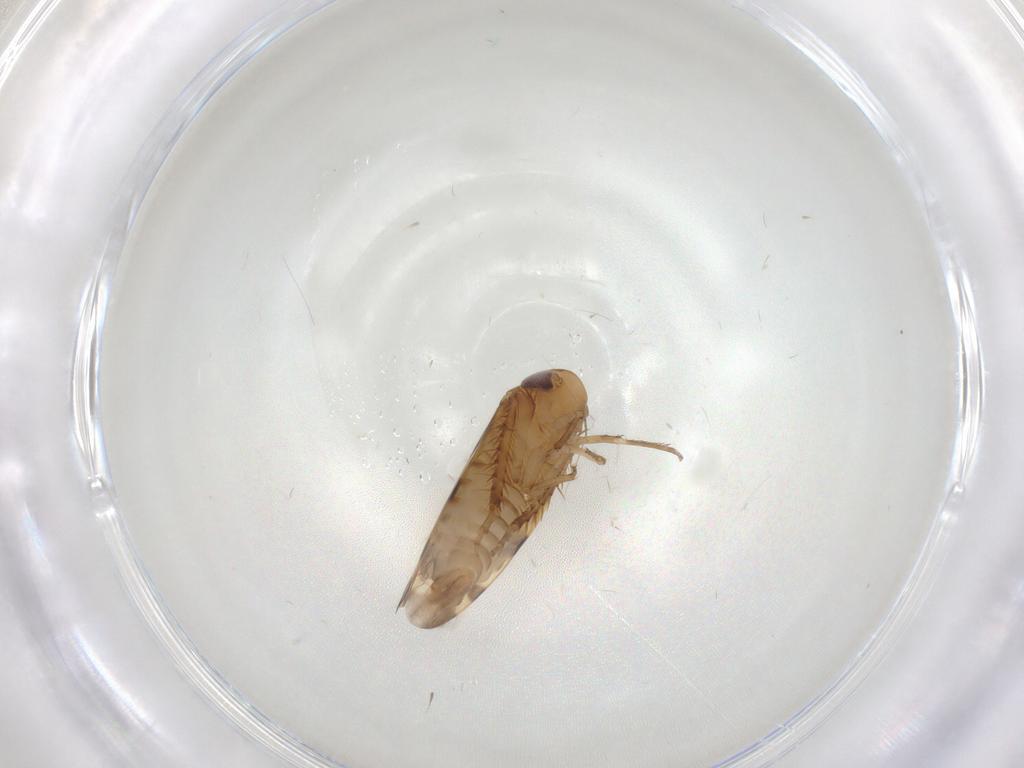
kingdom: Animalia
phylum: Arthropoda
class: Insecta
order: Hemiptera
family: Cicadellidae
